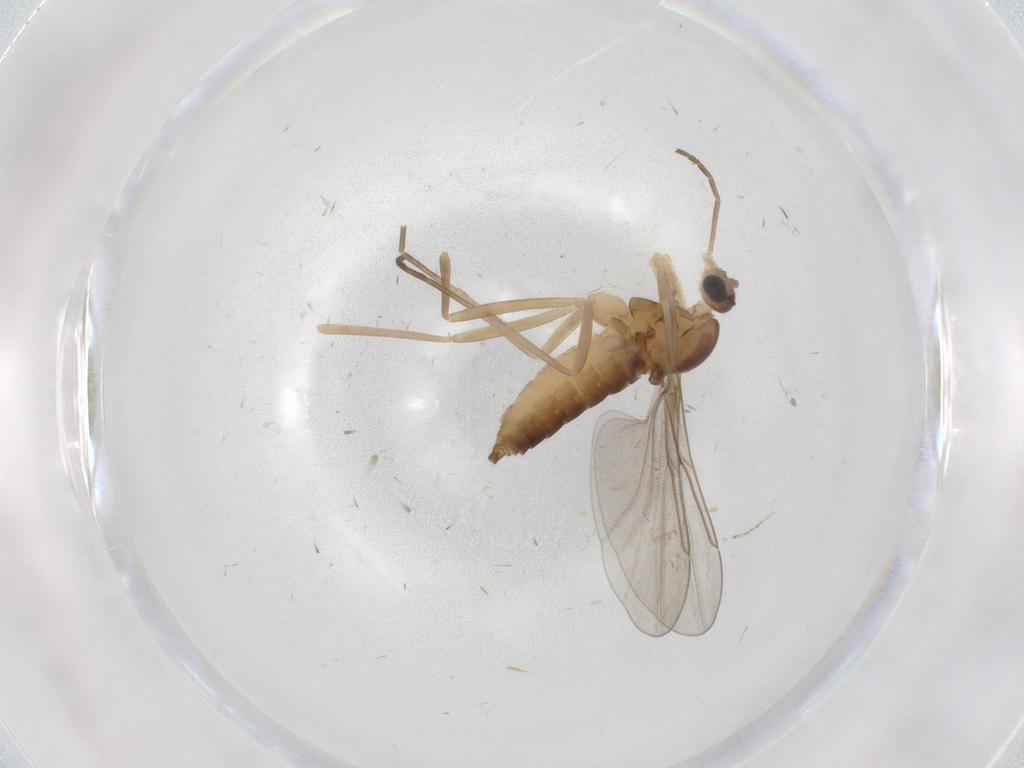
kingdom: Animalia
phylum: Arthropoda
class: Insecta
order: Diptera
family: Cecidomyiidae
